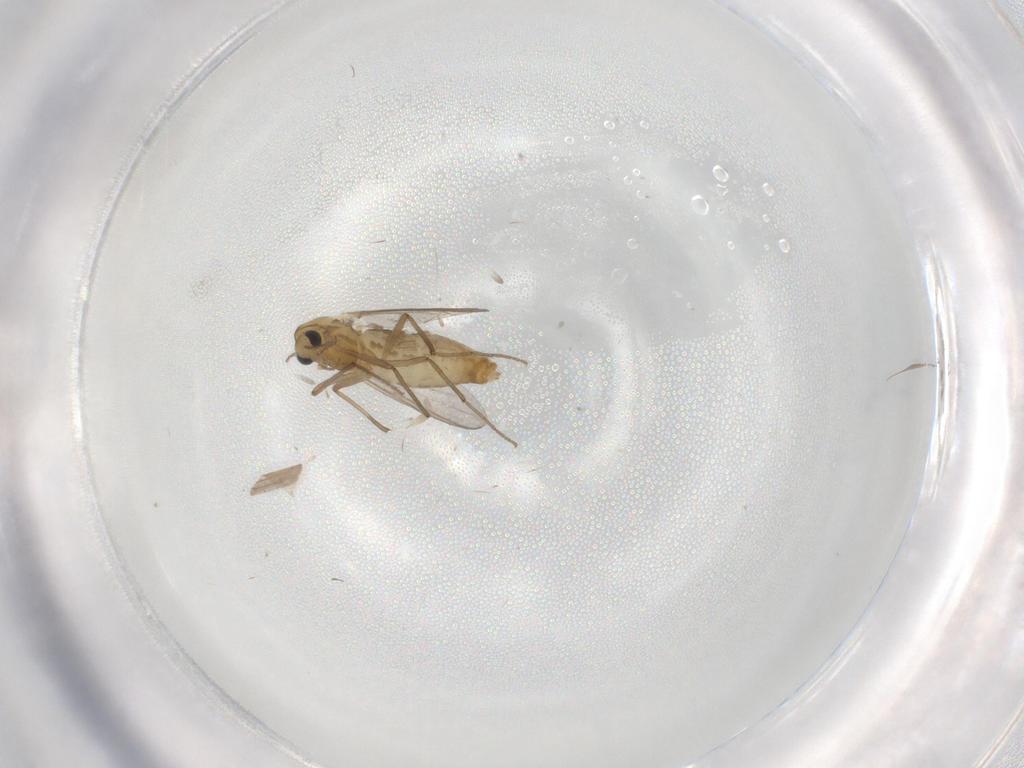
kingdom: Animalia
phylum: Arthropoda
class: Insecta
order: Diptera
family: Chironomidae
